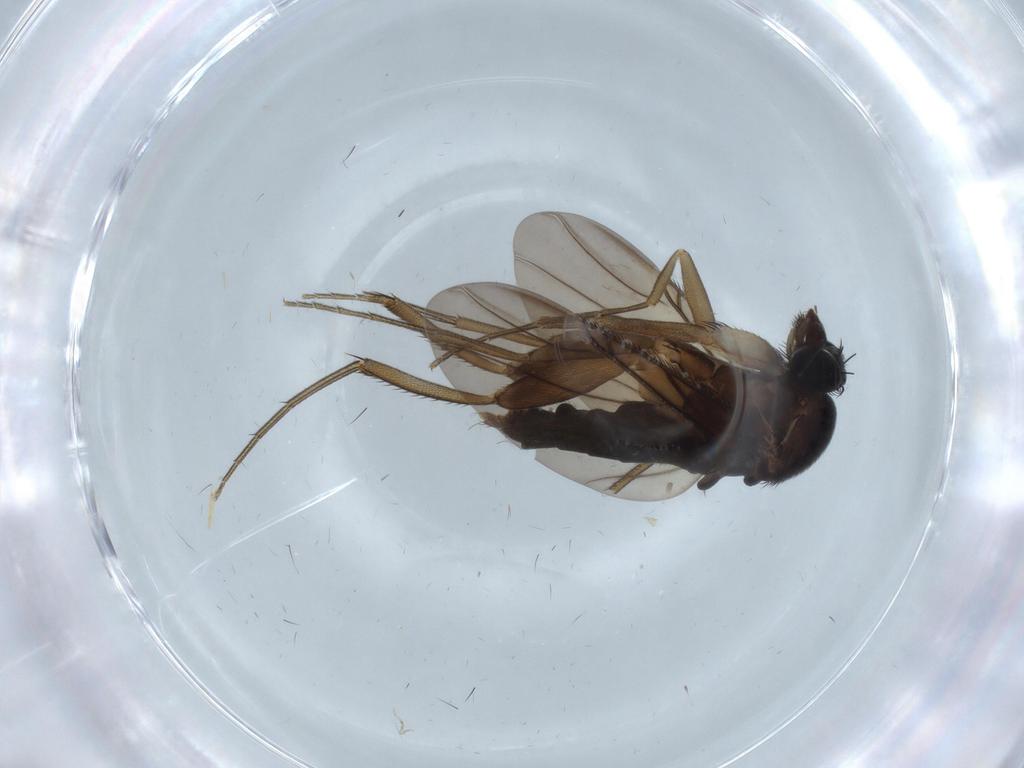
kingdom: Animalia
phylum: Arthropoda
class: Insecta
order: Diptera
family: Phoridae
